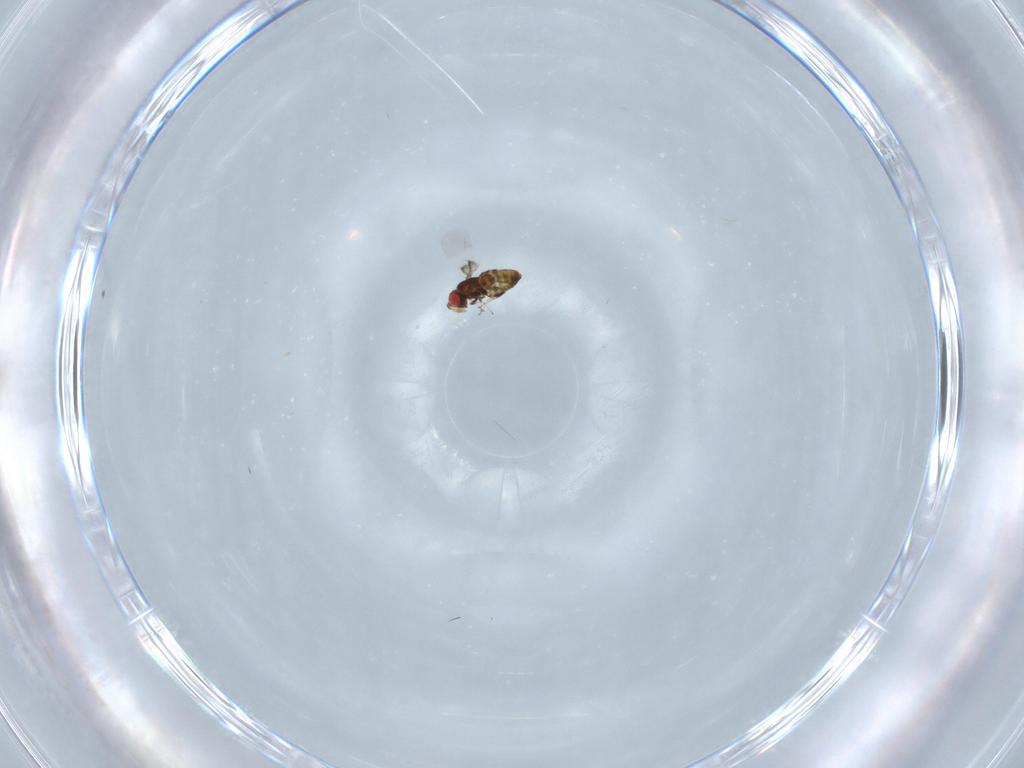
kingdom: Animalia
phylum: Arthropoda
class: Insecta
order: Hymenoptera
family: Trichogrammatidae
